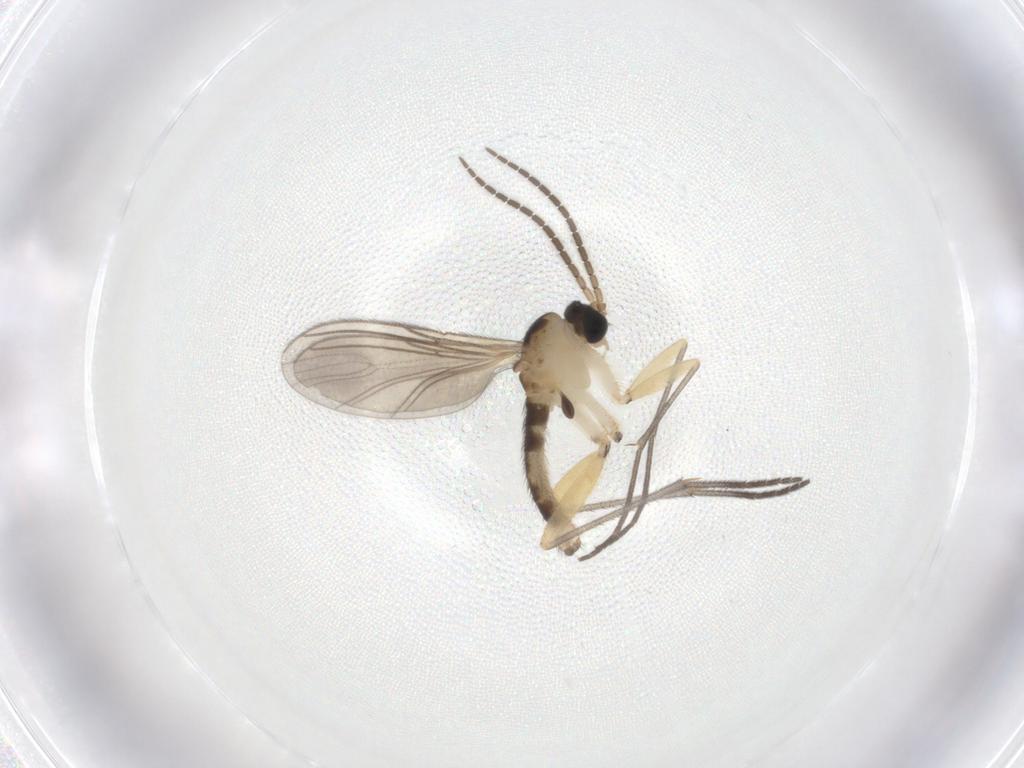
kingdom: Animalia
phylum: Arthropoda
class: Insecta
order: Diptera
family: Sciaridae
